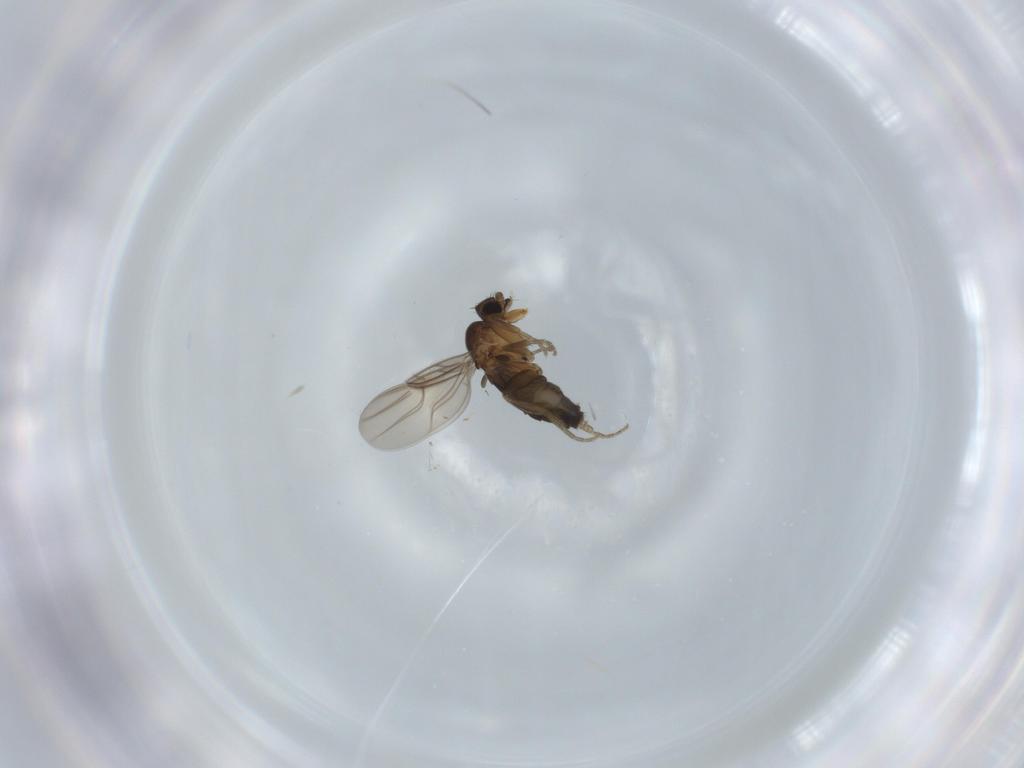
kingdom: Animalia
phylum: Arthropoda
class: Insecta
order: Diptera
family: Phoridae
